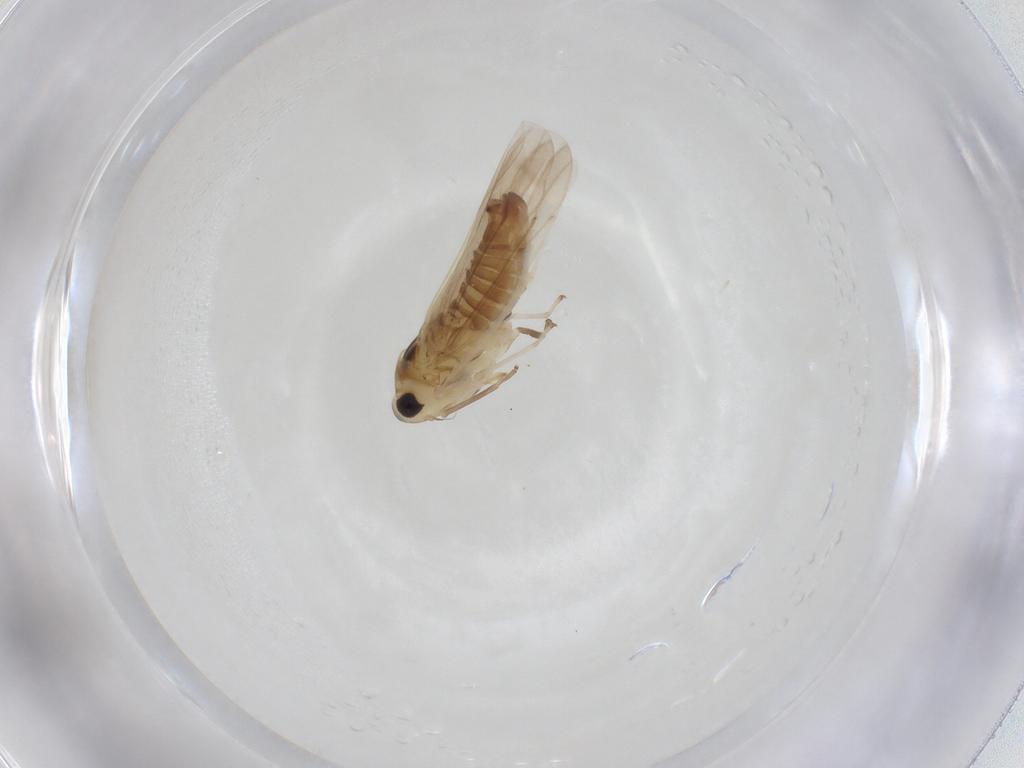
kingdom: Animalia
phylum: Arthropoda
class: Insecta
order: Hemiptera
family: Cicadellidae
